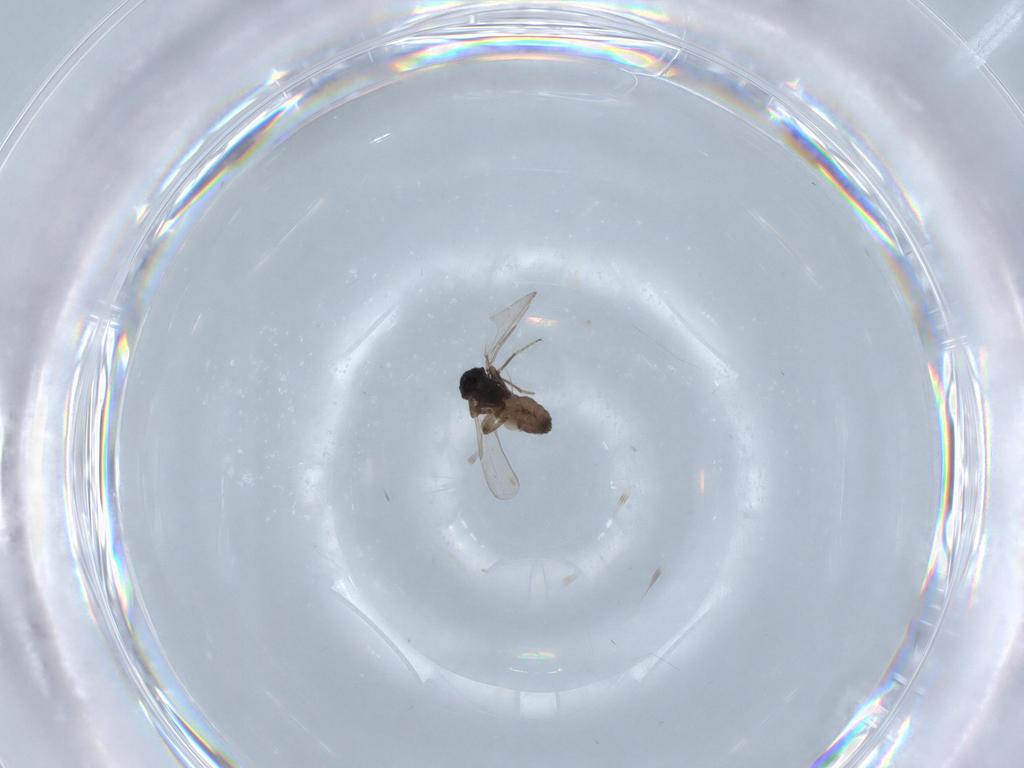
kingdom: Animalia
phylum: Arthropoda
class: Insecta
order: Diptera
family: Ceratopogonidae
